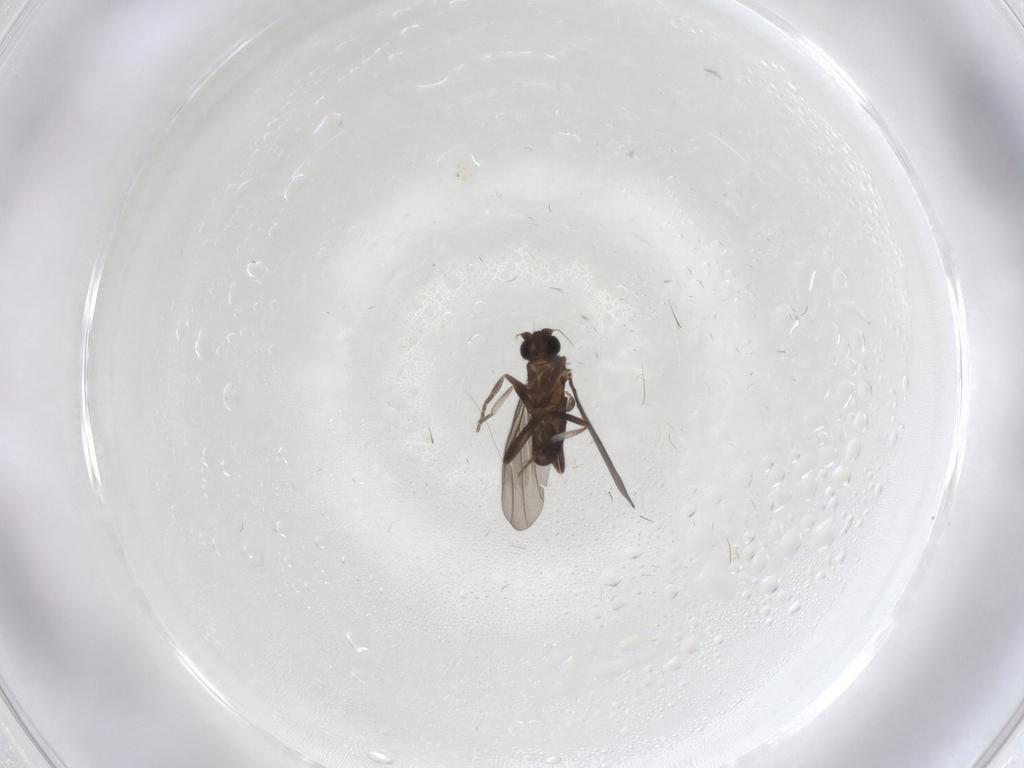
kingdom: Animalia
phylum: Arthropoda
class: Insecta
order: Diptera
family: Phoridae
